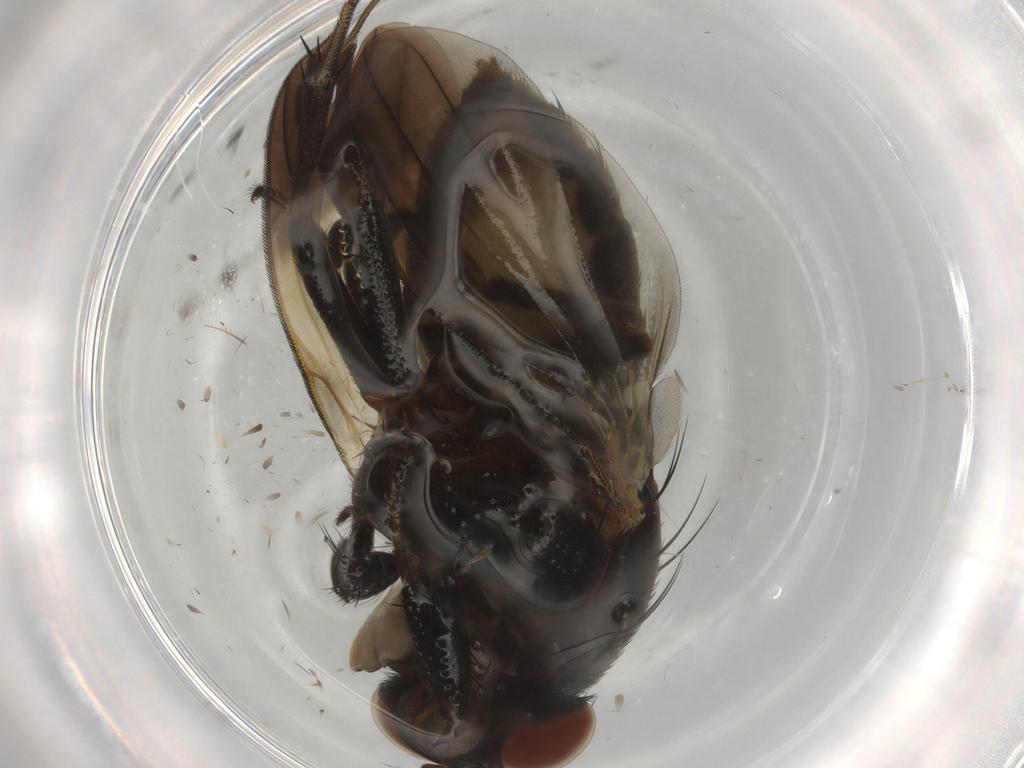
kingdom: Animalia
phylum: Arthropoda
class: Insecta
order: Diptera
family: Lauxaniidae
